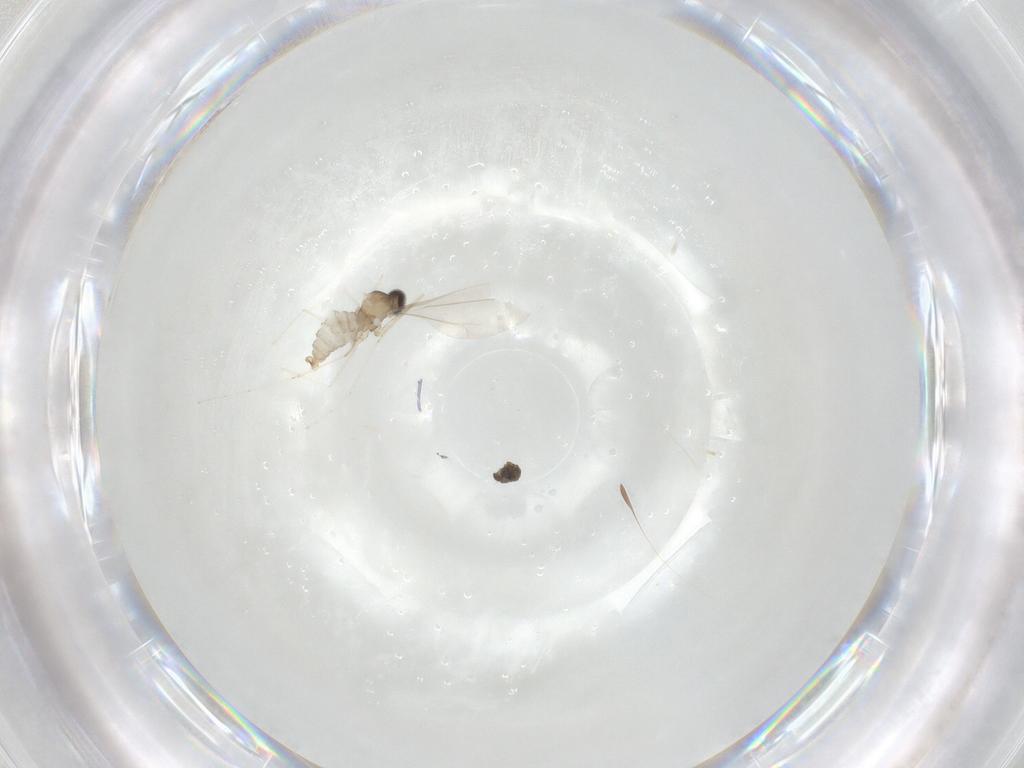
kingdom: Animalia
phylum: Arthropoda
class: Insecta
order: Diptera
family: Cecidomyiidae
